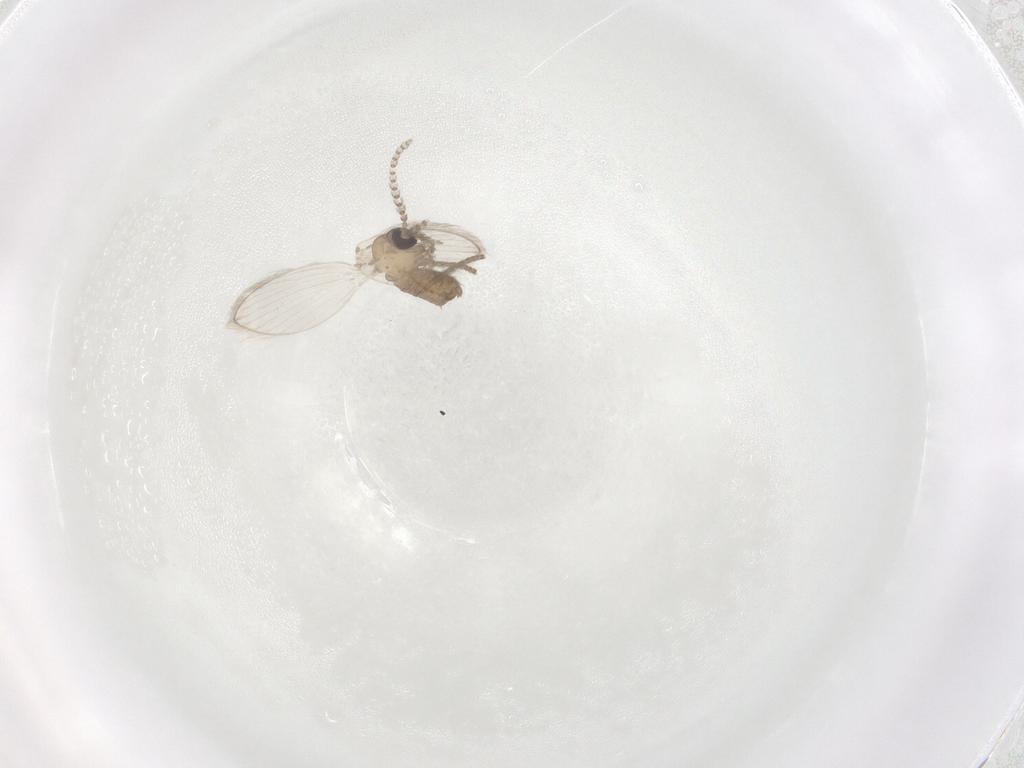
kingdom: Animalia
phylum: Arthropoda
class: Insecta
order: Diptera
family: Psychodidae
